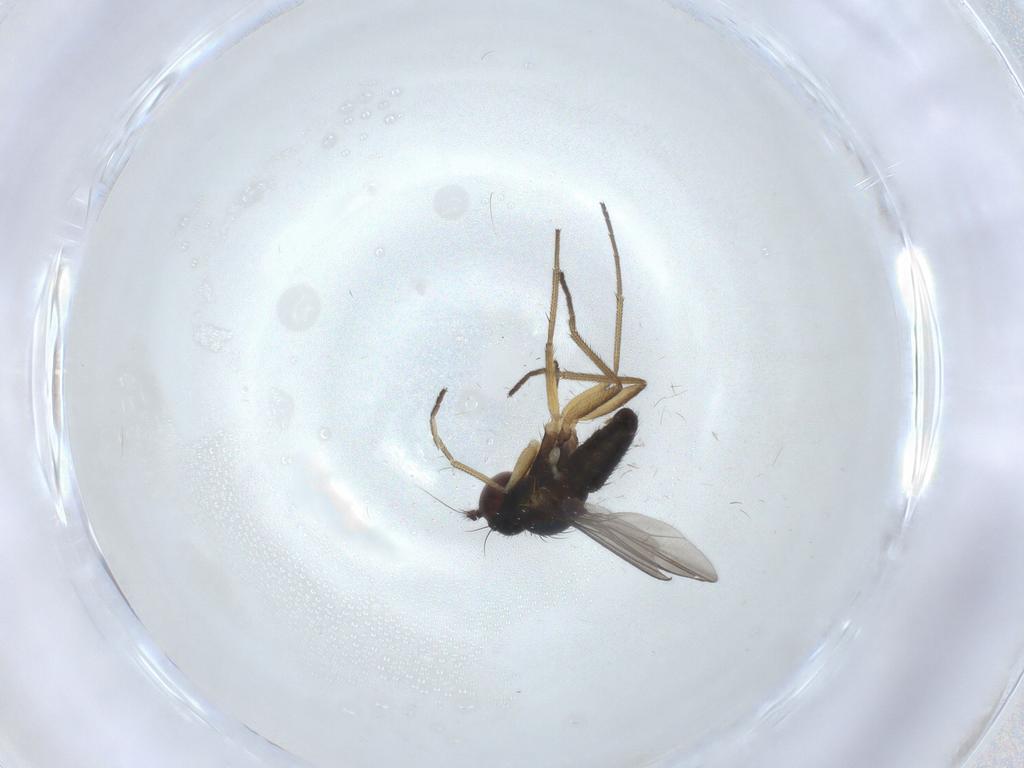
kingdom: Animalia
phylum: Arthropoda
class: Insecta
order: Diptera
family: Dolichopodidae
